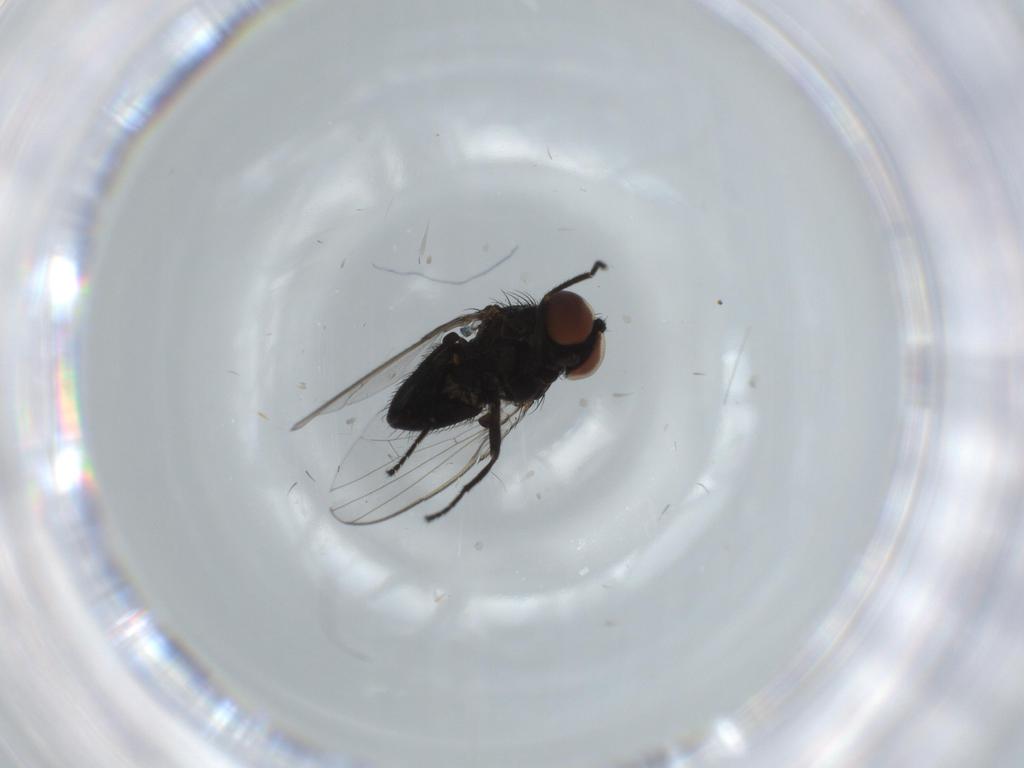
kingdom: Animalia
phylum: Arthropoda
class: Insecta
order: Diptera
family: Milichiidae
